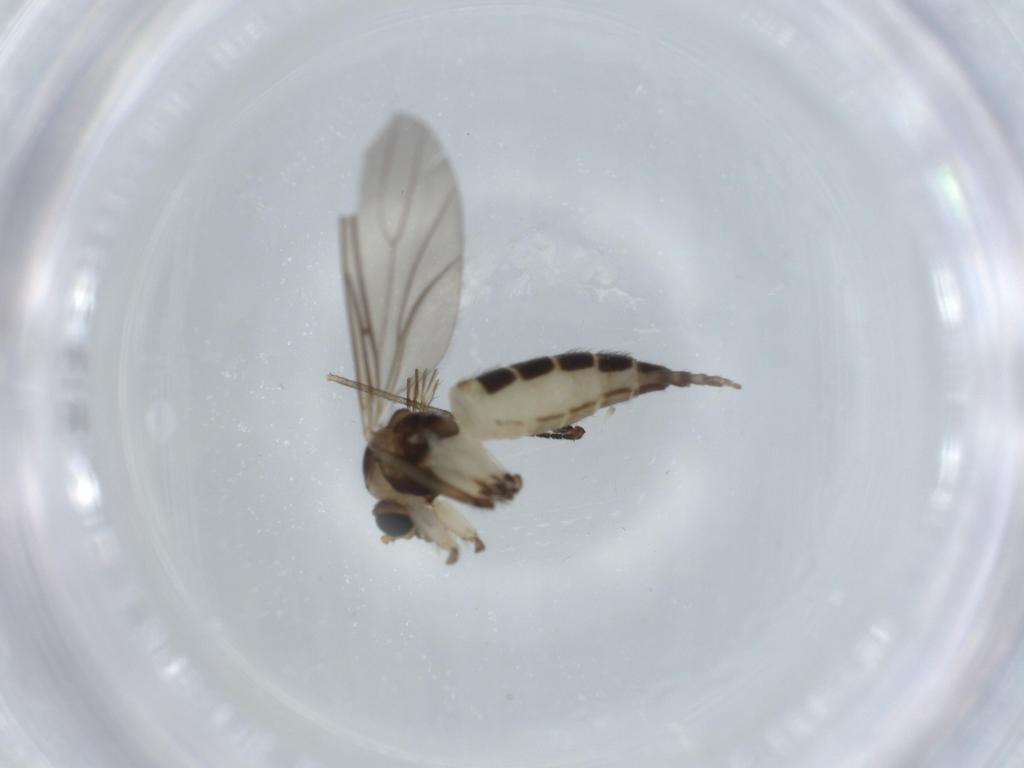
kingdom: Animalia
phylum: Arthropoda
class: Insecta
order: Diptera
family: Sciaridae
